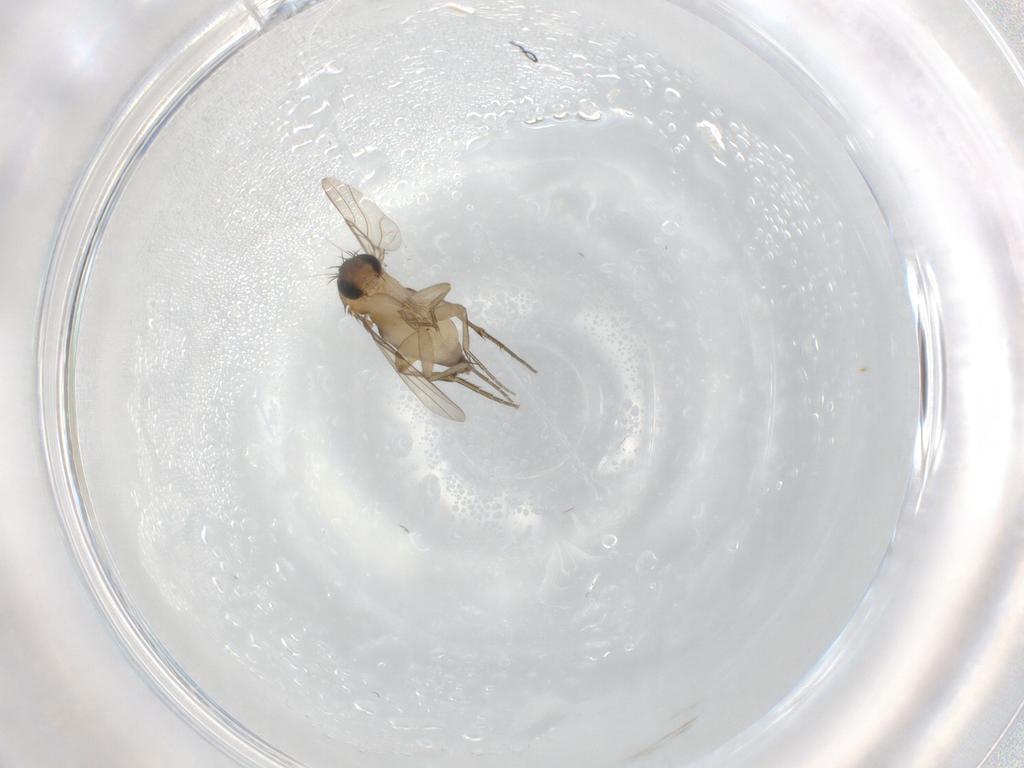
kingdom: Animalia
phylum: Arthropoda
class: Insecta
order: Diptera
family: Phoridae
